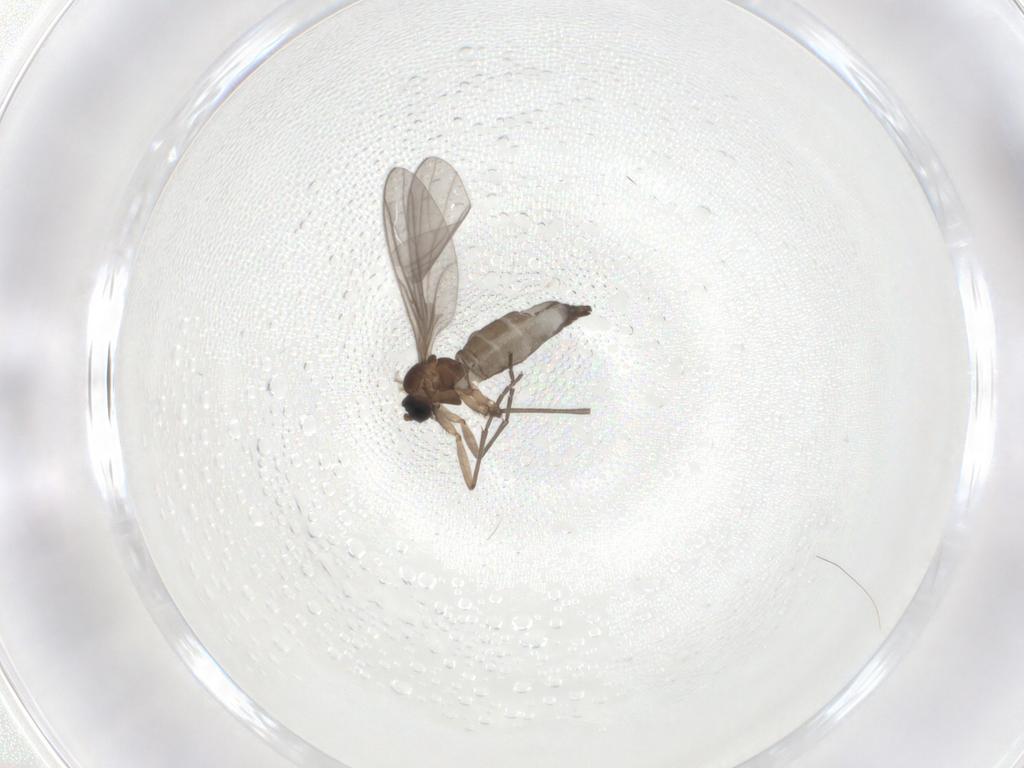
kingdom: Animalia
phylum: Arthropoda
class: Insecta
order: Diptera
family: Sciaridae
